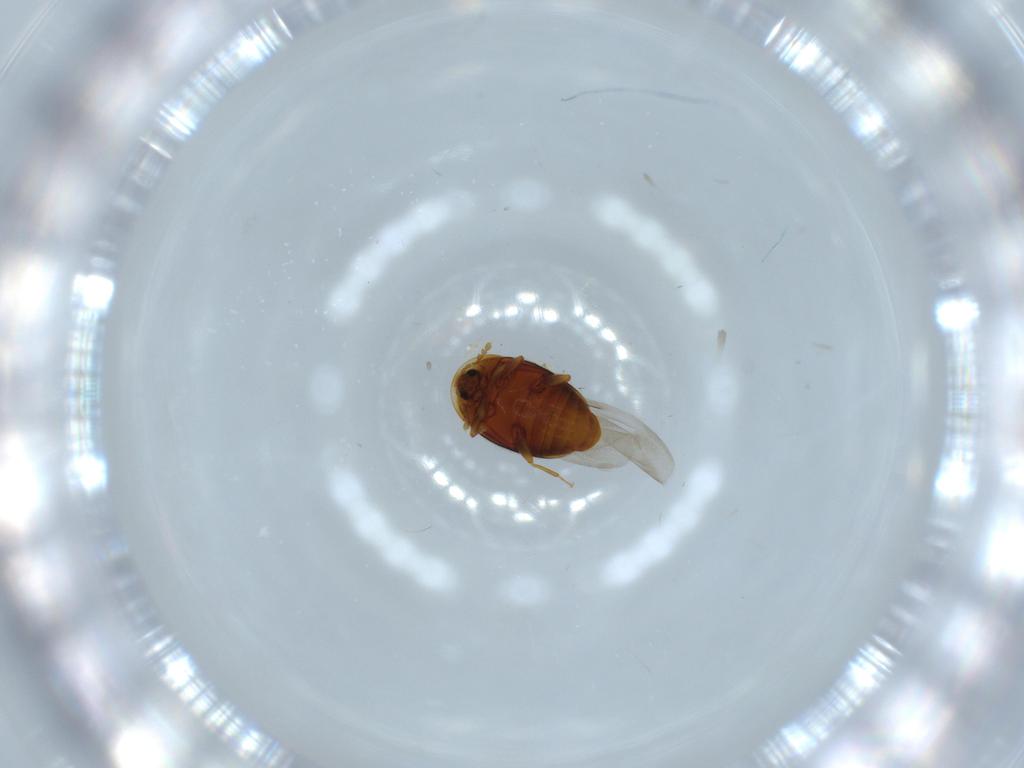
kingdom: Animalia
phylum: Arthropoda
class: Insecta
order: Coleoptera
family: Corylophidae
